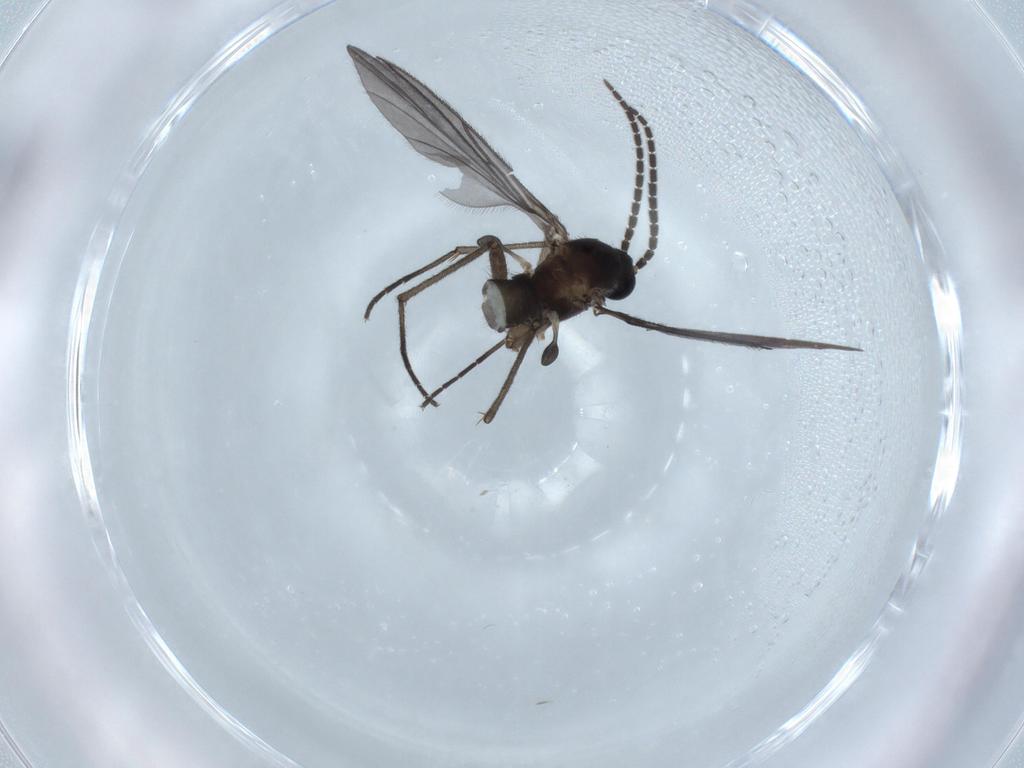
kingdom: Animalia
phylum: Arthropoda
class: Insecta
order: Diptera
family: Sciaridae
